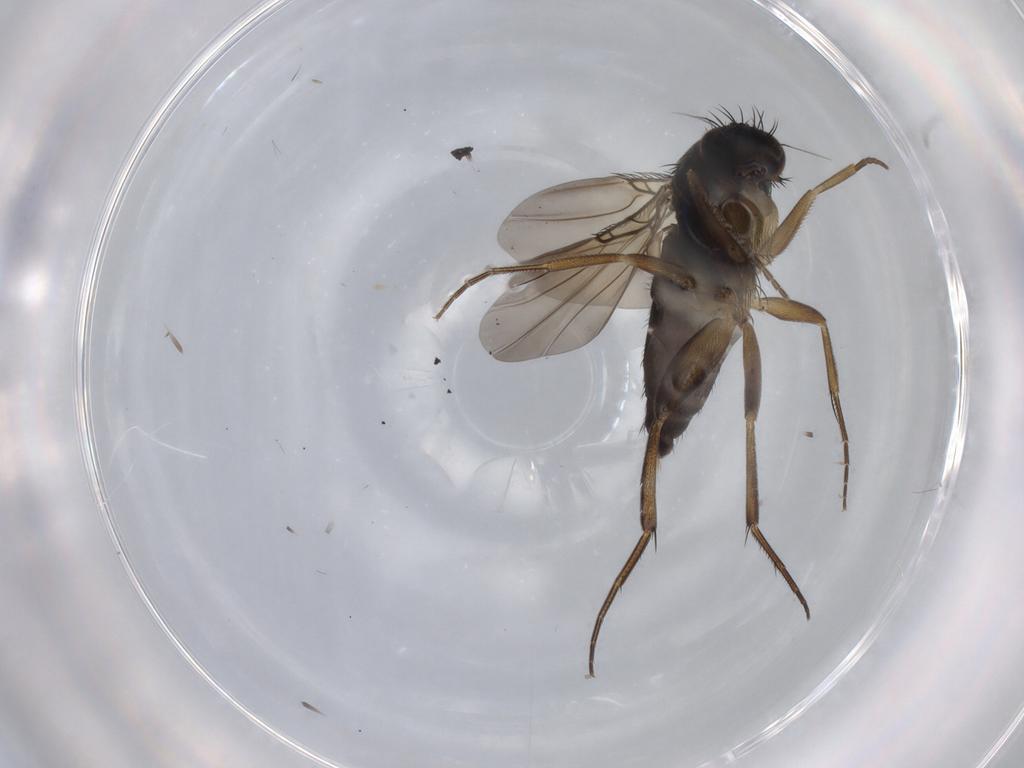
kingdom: Animalia
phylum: Arthropoda
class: Insecta
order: Diptera
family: Phoridae
